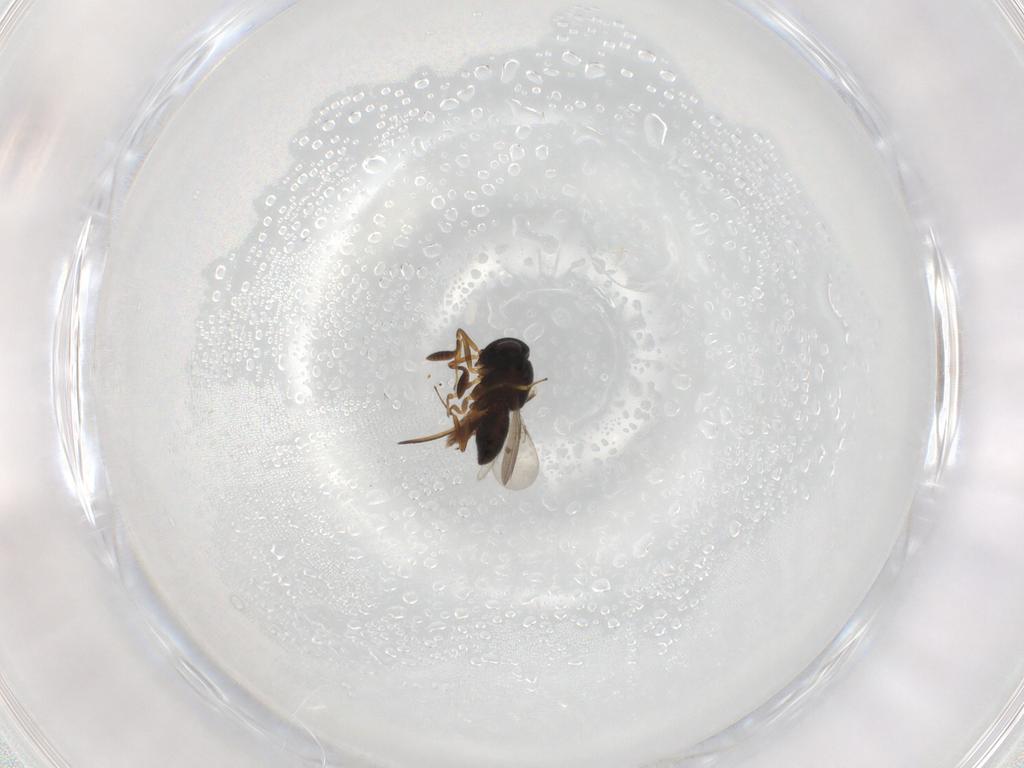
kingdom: Animalia
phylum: Arthropoda
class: Insecta
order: Hymenoptera
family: Scelionidae
